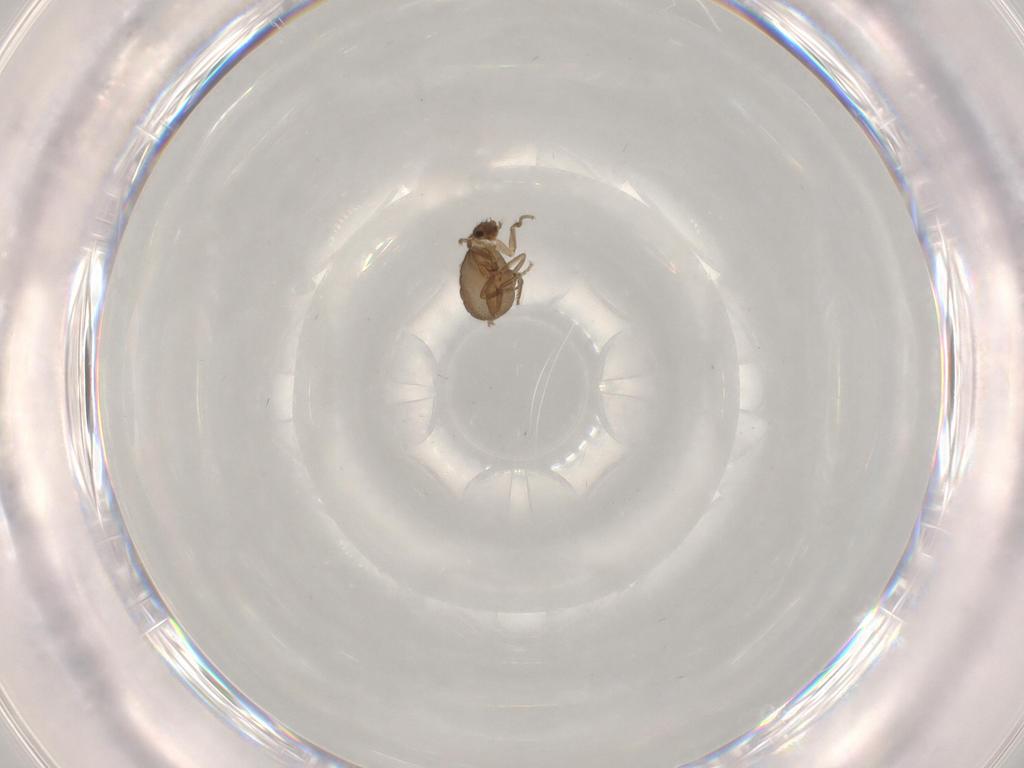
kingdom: Animalia
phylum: Arthropoda
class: Insecta
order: Diptera
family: Chironomidae
